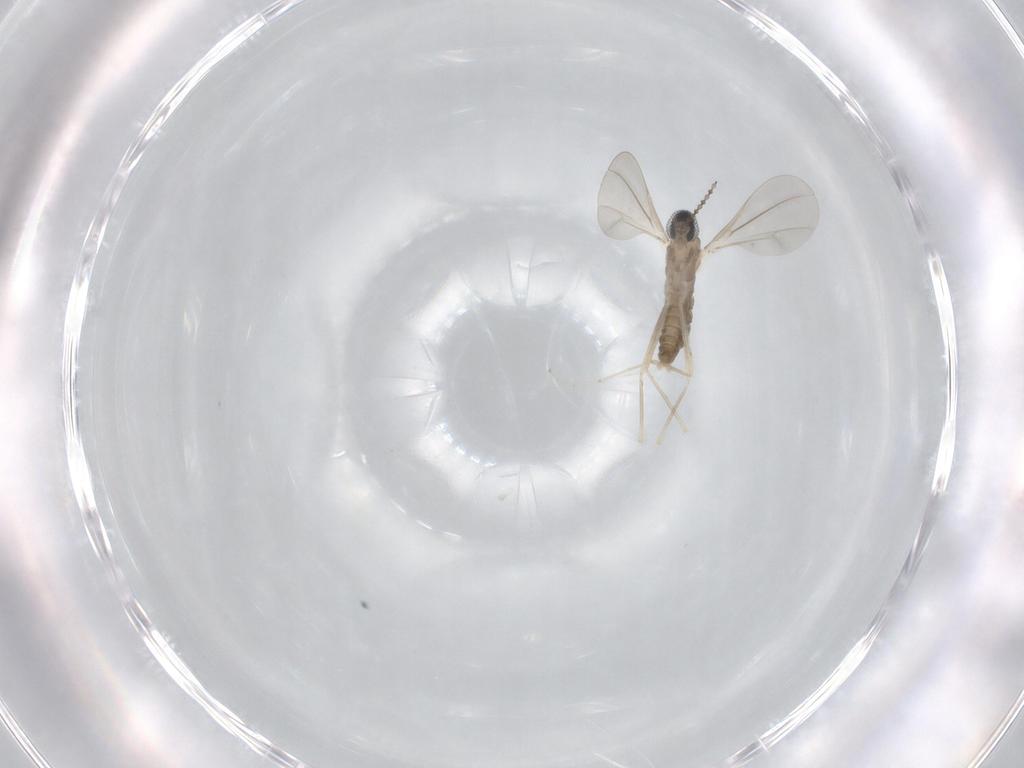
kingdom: Animalia
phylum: Arthropoda
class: Insecta
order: Diptera
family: Cecidomyiidae
